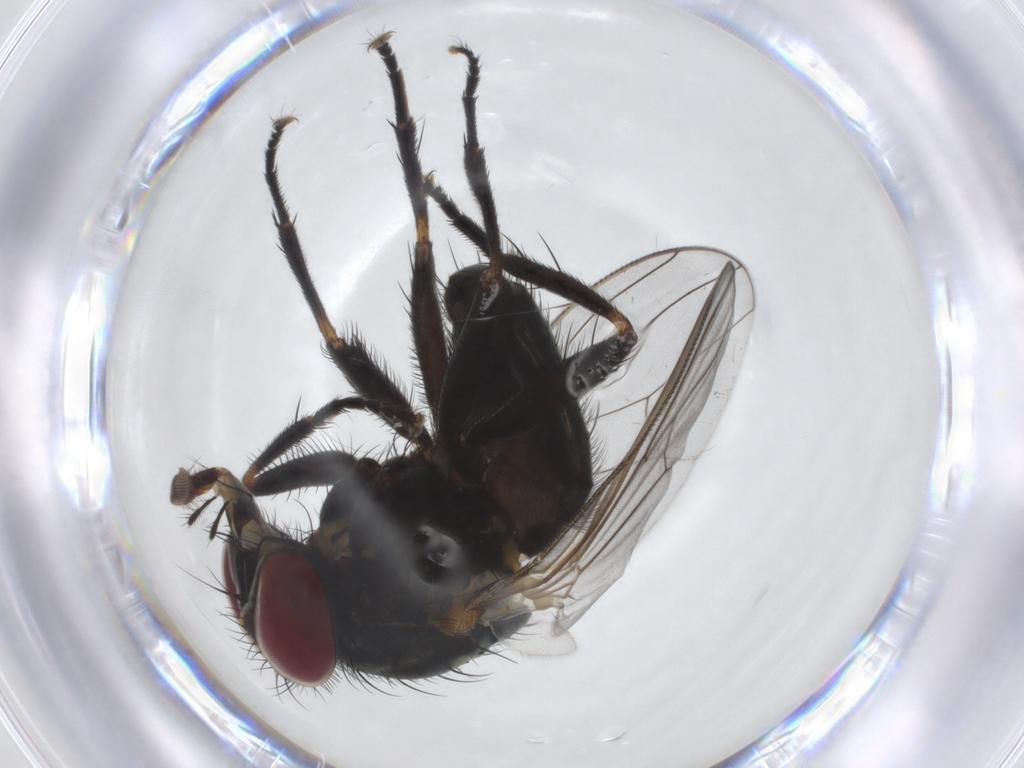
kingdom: Animalia
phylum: Arthropoda
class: Insecta
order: Diptera
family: Fannia
